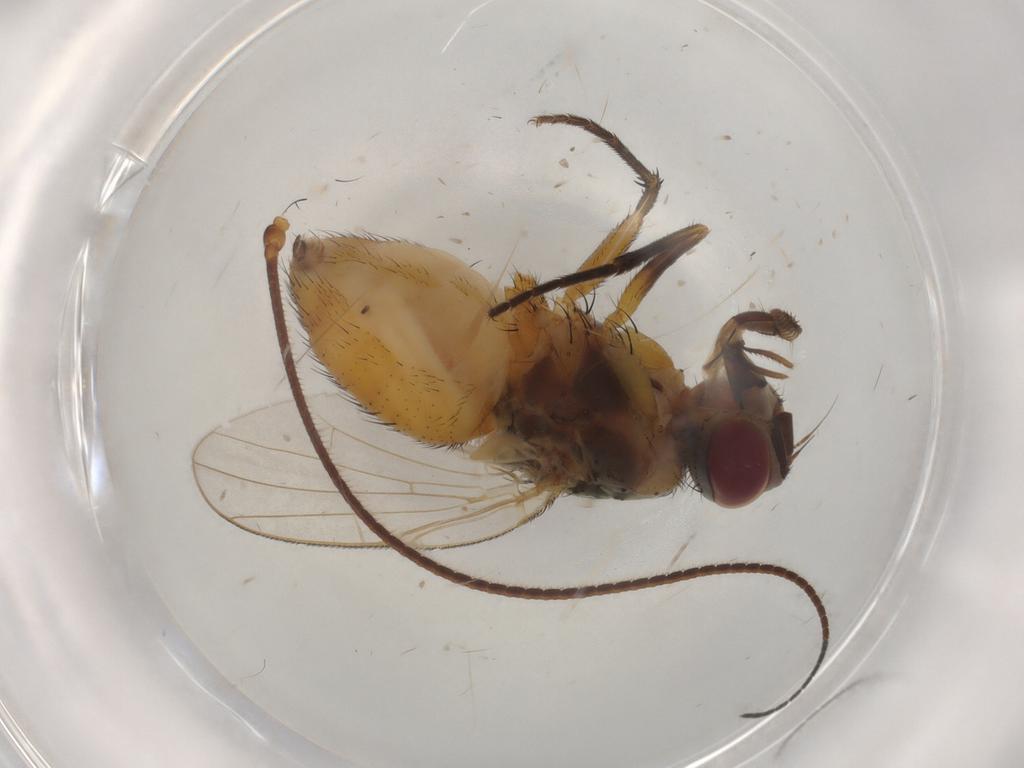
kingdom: Animalia
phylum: Arthropoda
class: Insecta
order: Diptera
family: Muscidae
